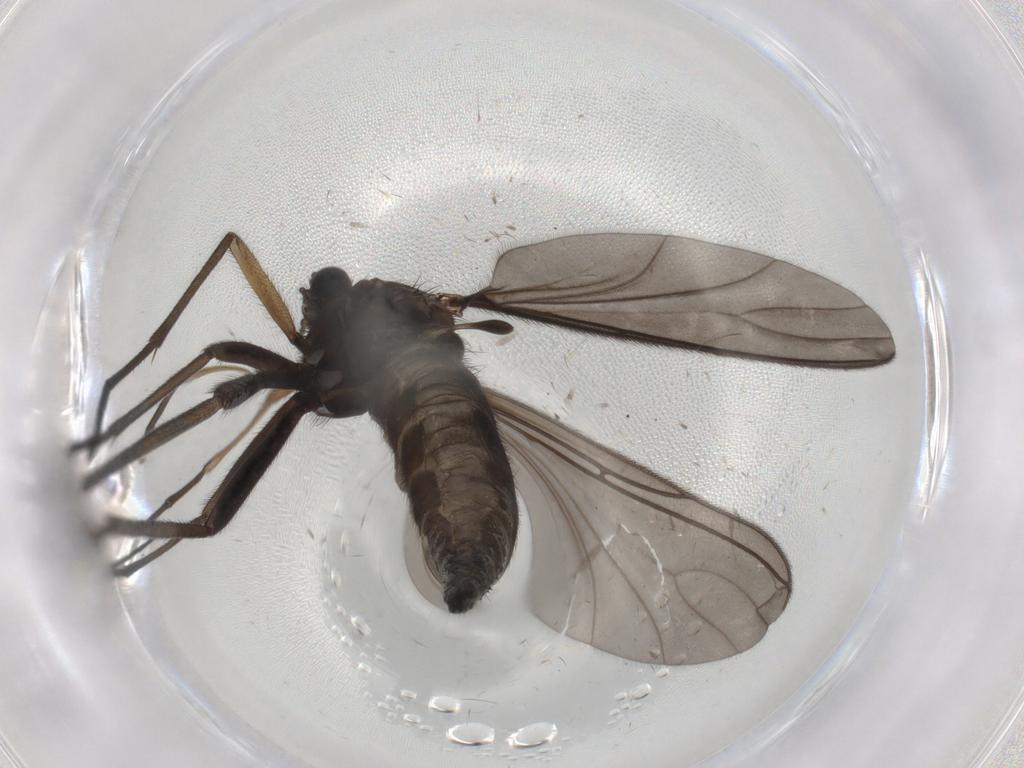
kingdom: Animalia
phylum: Arthropoda
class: Insecta
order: Diptera
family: Sciaridae
